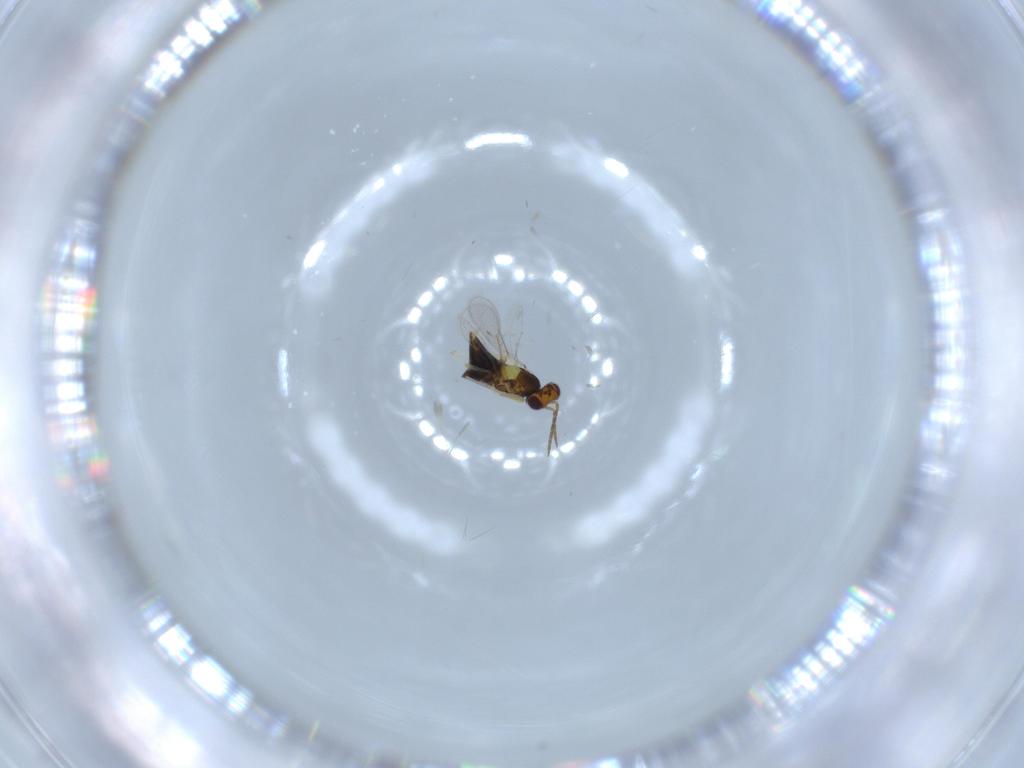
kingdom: Animalia
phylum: Arthropoda
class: Insecta
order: Hymenoptera
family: Aphelinidae
